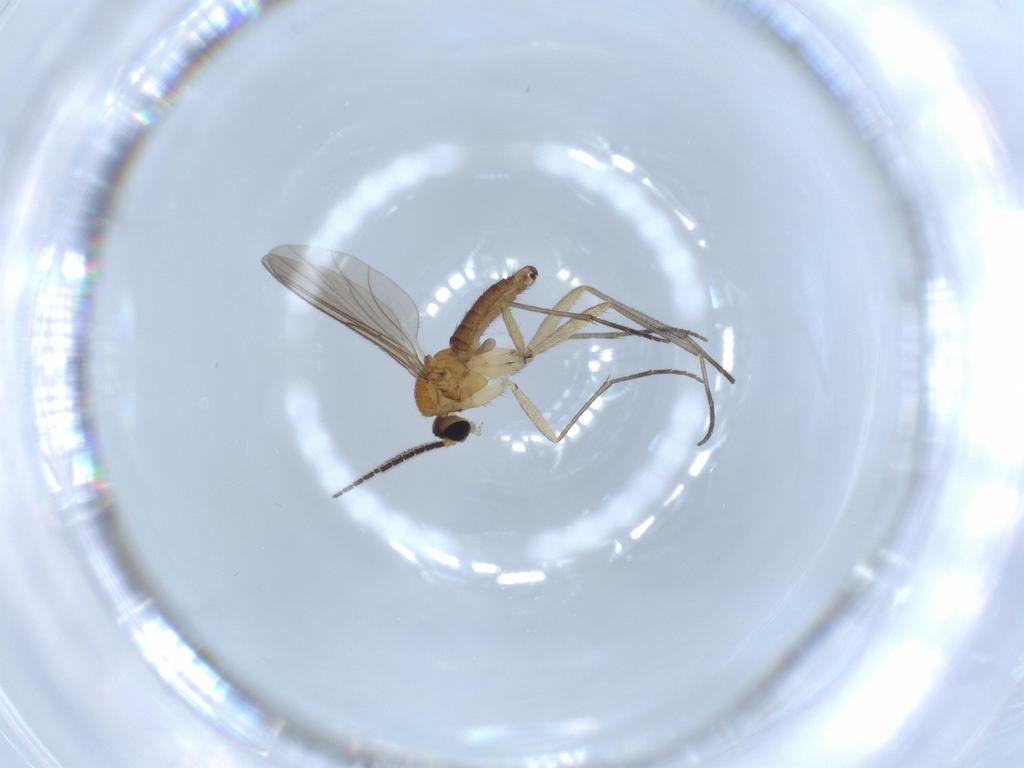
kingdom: Animalia
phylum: Arthropoda
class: Insecta
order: Diptera
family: Sciaridae
